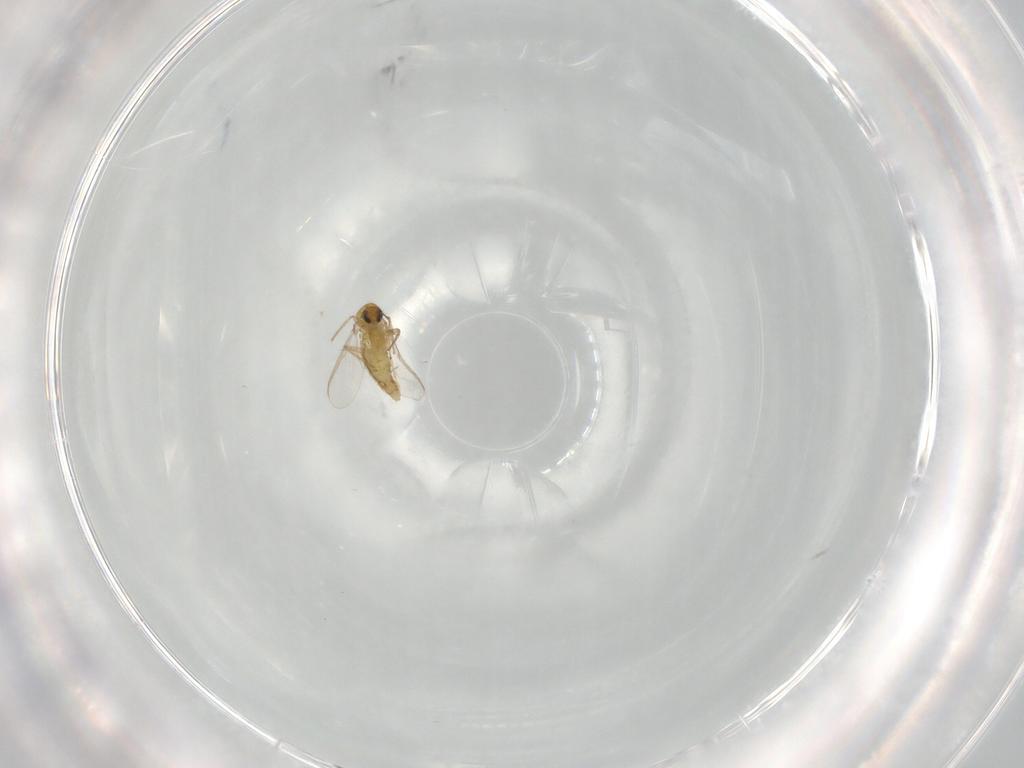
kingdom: Animalia
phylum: Arthropoda
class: Insecta
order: Diptera
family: Chironomidae
